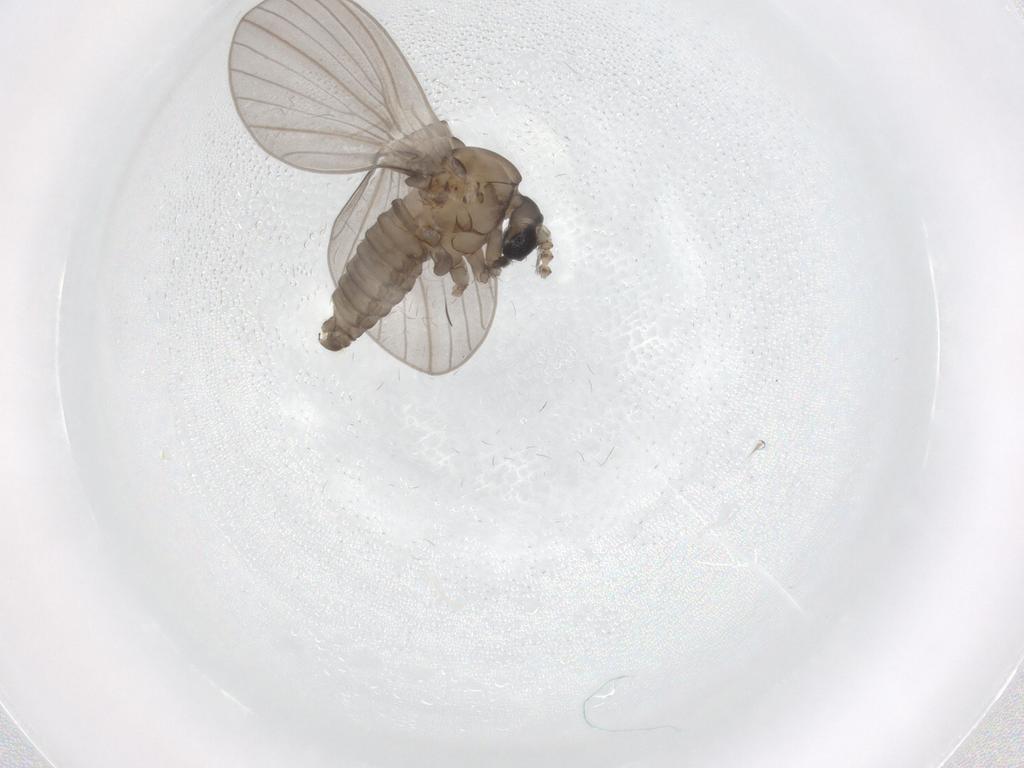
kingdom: Animalia
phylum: Arthropoda
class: Insecta
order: Diptera
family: Psychodidae
